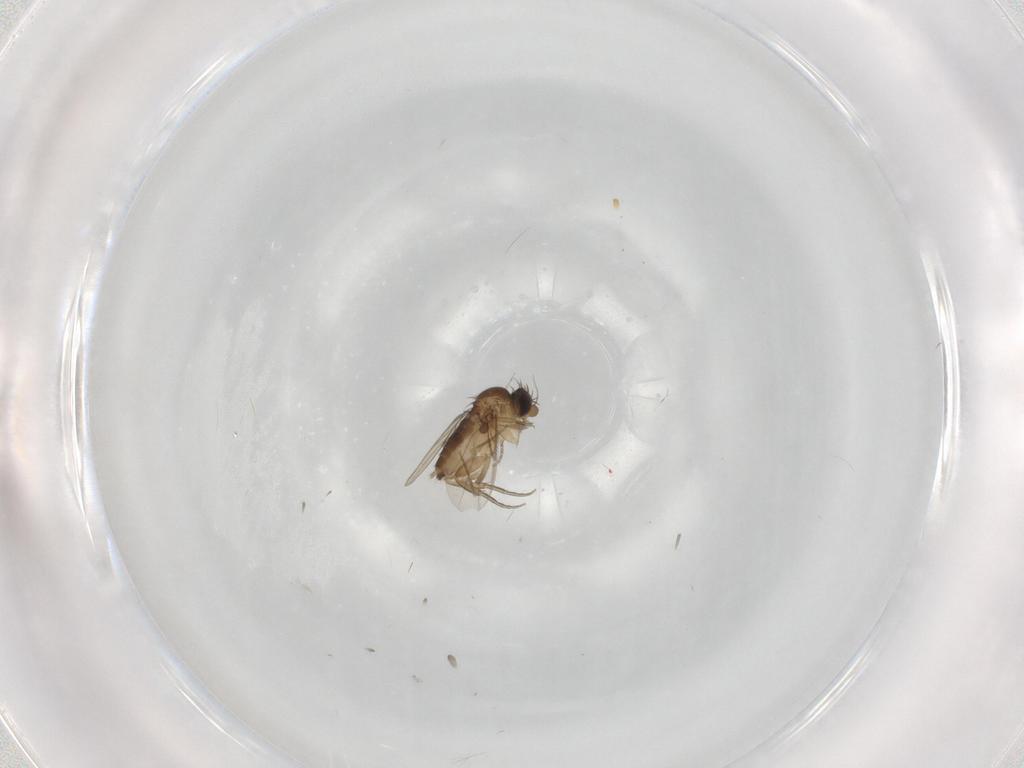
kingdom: Animalia
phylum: Arthropoda
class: Insecta
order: Diptera
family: Phoridae
